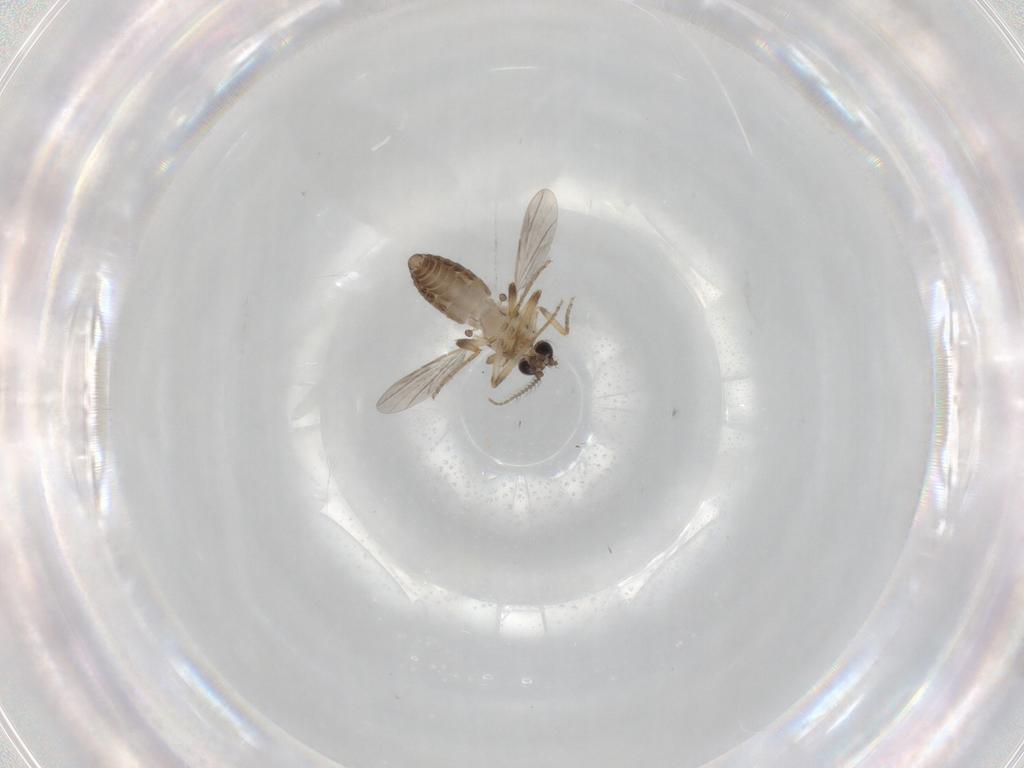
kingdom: Animalia
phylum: Arthropoda
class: Insecta
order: Diptera
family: Ceratopogonidae
